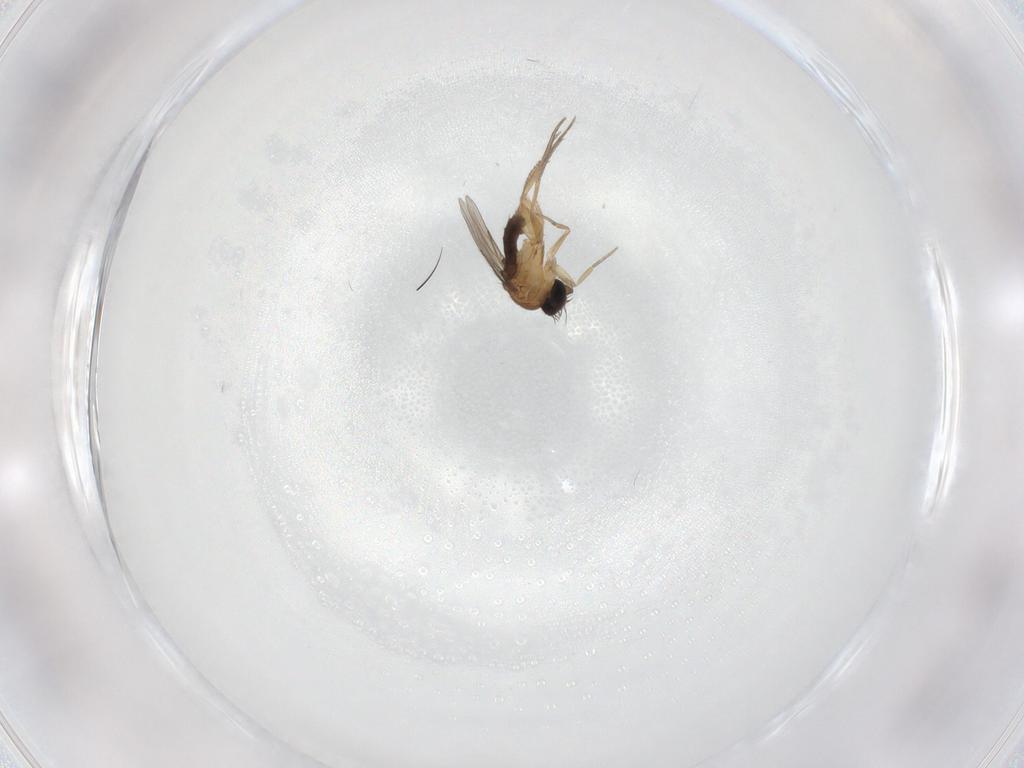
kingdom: Animalia
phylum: Arthropoda
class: Insecta
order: Diptera
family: Phoridae
